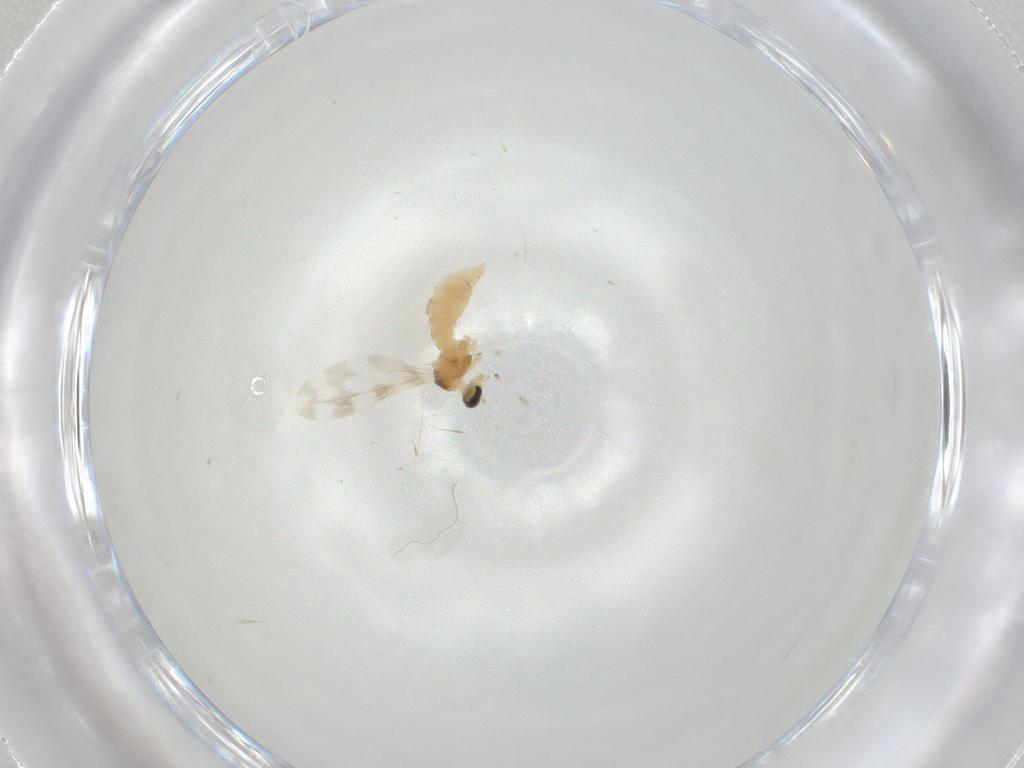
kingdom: Animalia
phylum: Arthropoda
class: Insecta
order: Diptera
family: Cecidomyiidae
